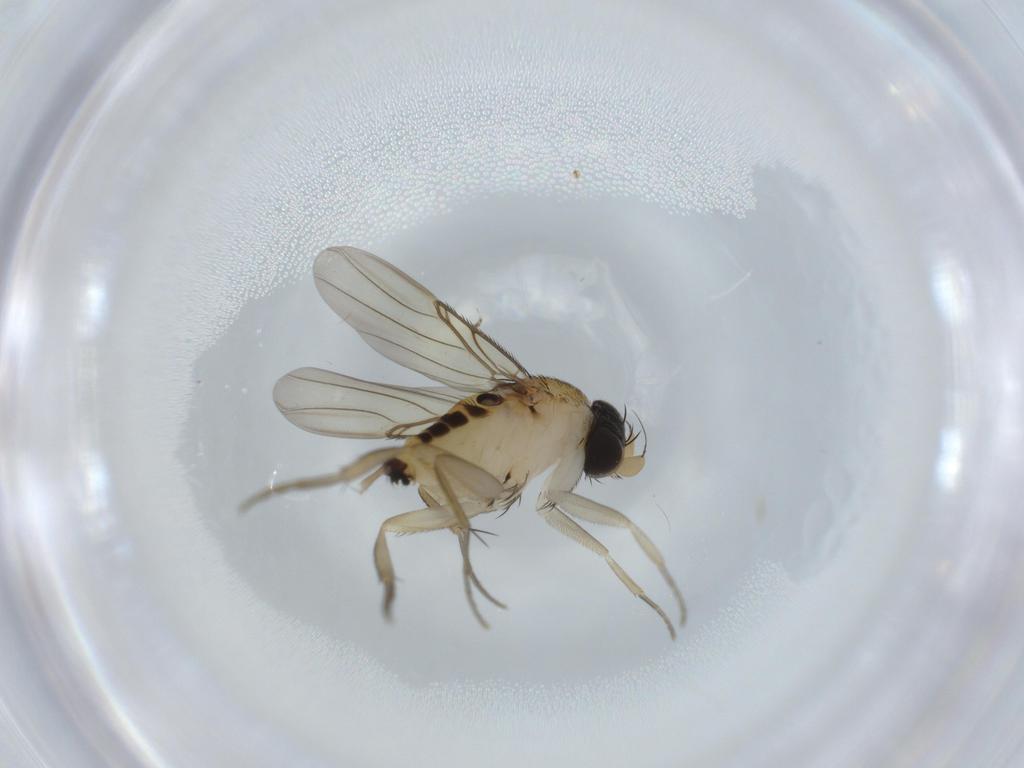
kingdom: Animalia
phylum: Arthropoda
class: Insecta
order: Diptera
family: Phoridae
